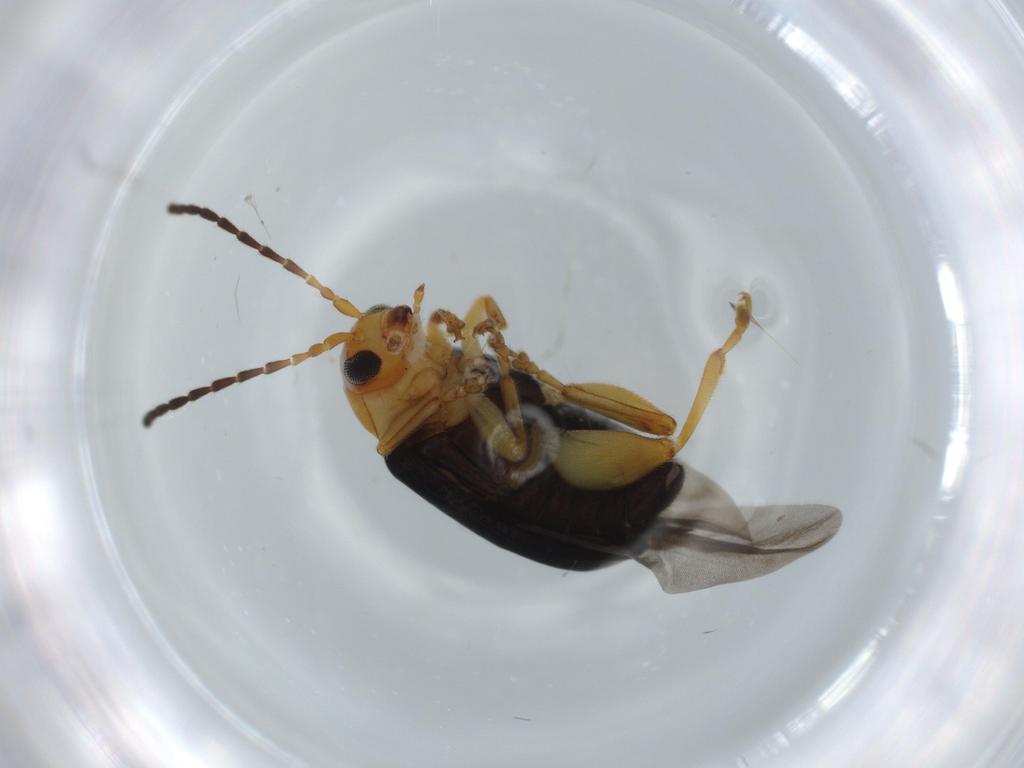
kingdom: Animalia
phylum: Arthropoda
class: Insecta
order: Coleoptera
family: Chrysomelidae
